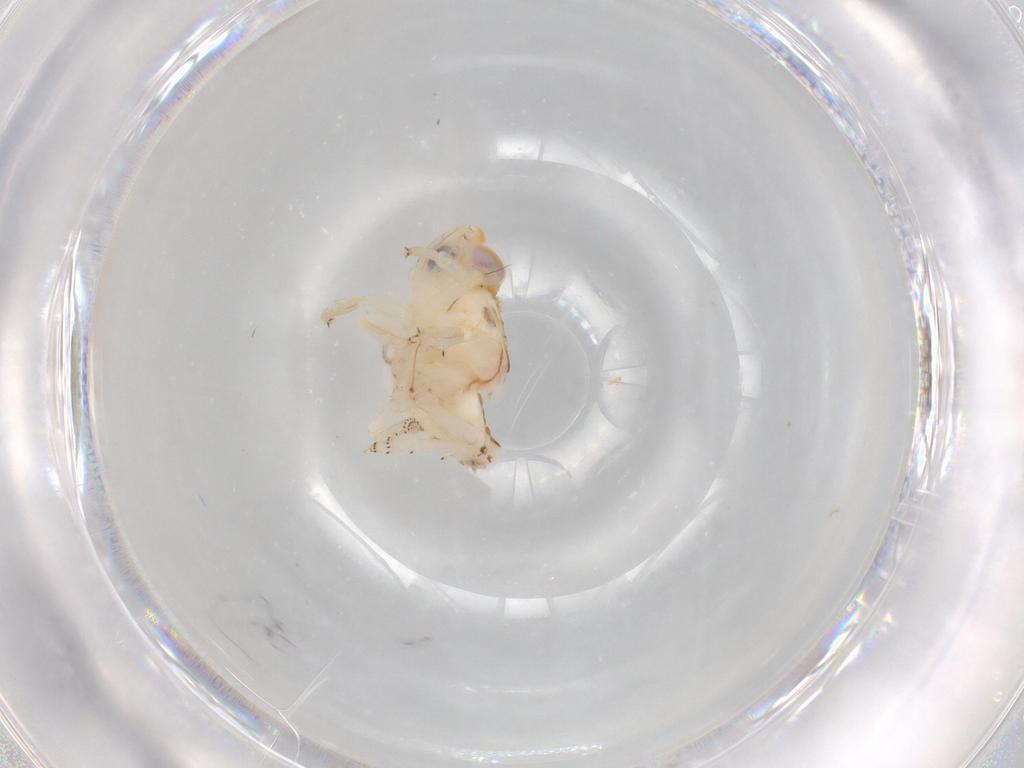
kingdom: Animalia
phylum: Arthropoda
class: Insecta
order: Hemiptera
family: Nogodinidae
